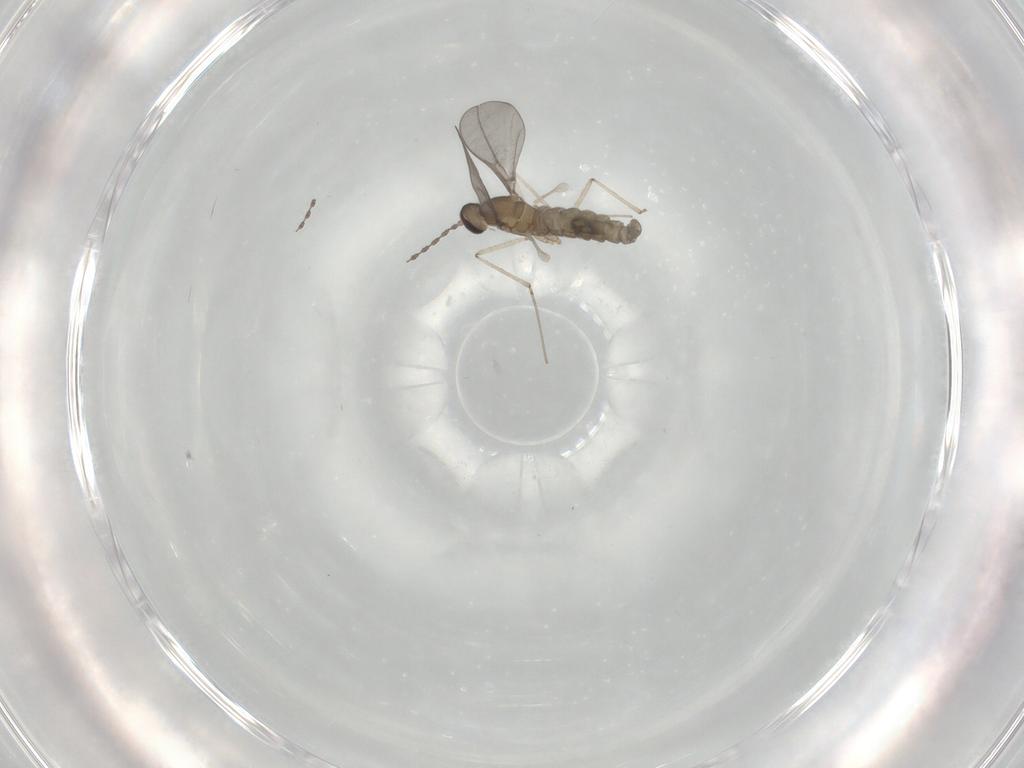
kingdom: Animalia
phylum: Arthropoda
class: Insecta
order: Diptera
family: Cecidomyiidae
